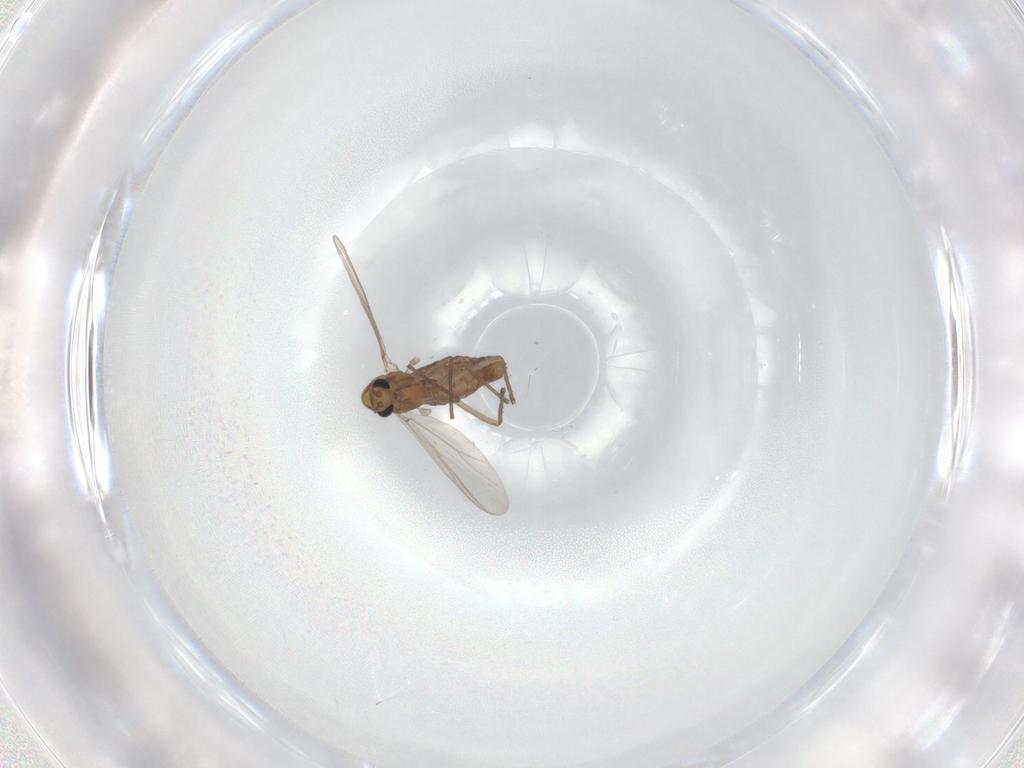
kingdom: Animalia
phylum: Arthropoda
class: Insecta
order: Diptera
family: Chironomidae
